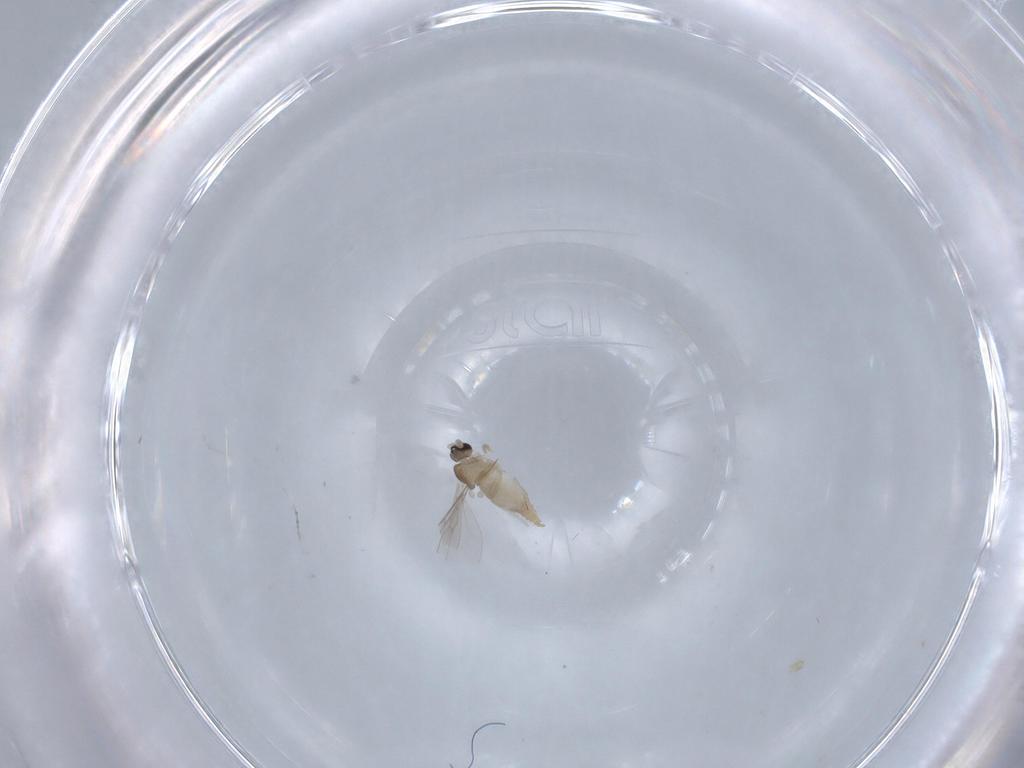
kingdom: Animalia
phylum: Arthropoda
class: Insecta
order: Diptera
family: Cecidomyiidae
